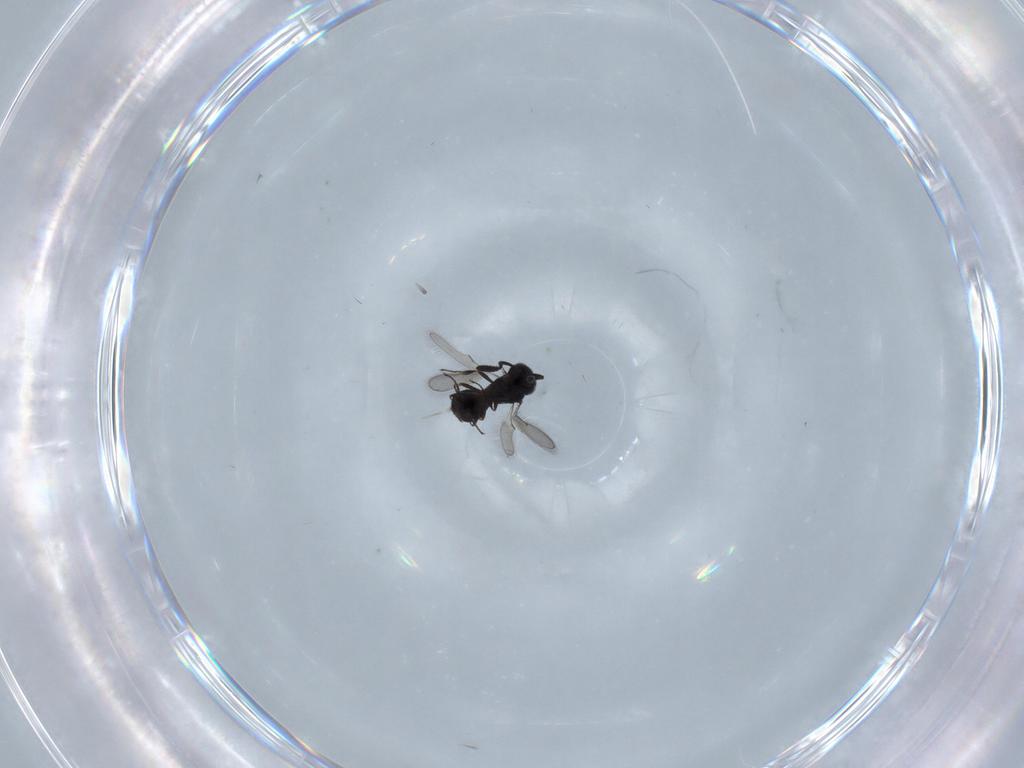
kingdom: Animalia
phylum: Arthropoda
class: Insecta
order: Hymenoptera
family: Scelionidae
